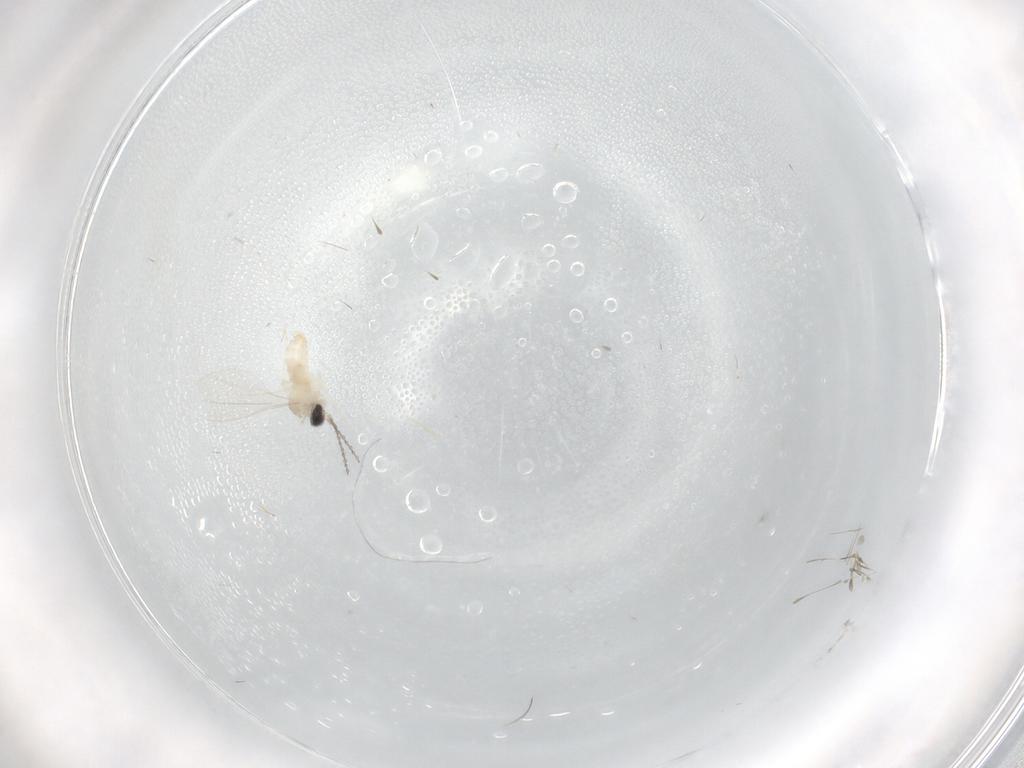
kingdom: Animalia
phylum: Arthropoda
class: Insecta
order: Diptera
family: Cecidomyiidae
